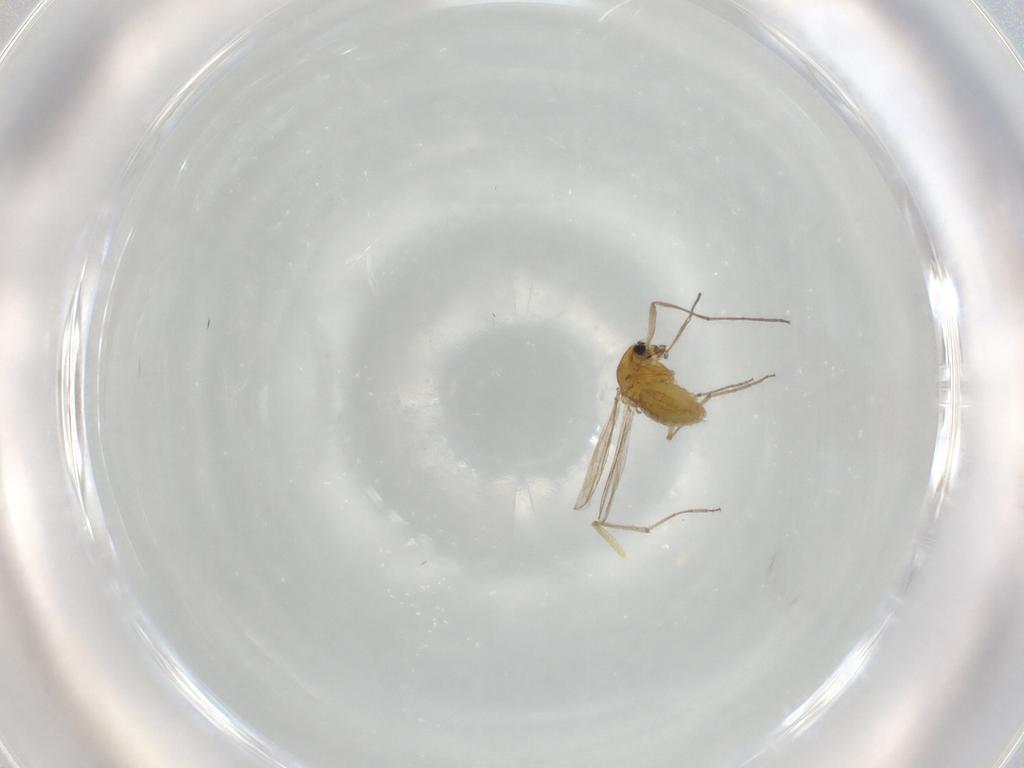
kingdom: Animalia
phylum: Arthropoda
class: Insecta
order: Diptera
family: Chironomidae
